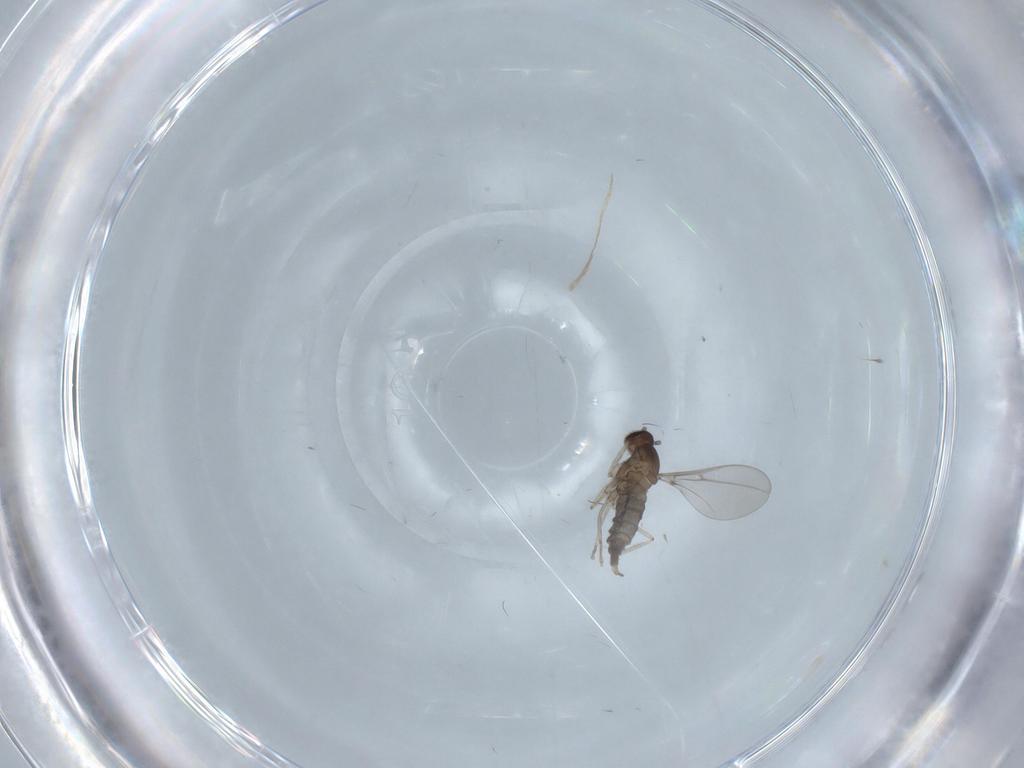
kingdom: Animalia
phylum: Arthropoda
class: Insecta
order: Diptera
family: Cecidomyiidae
